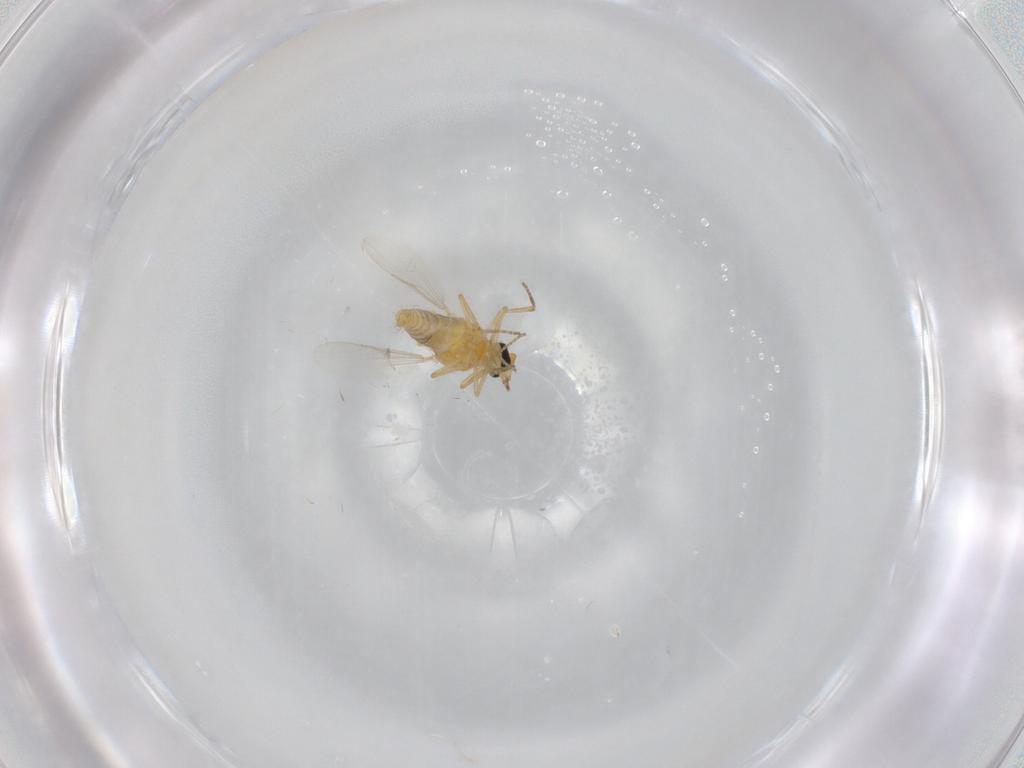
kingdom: Animalia
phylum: Arthropoda
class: Insecta
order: Diptera
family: Ceratopogonidae
